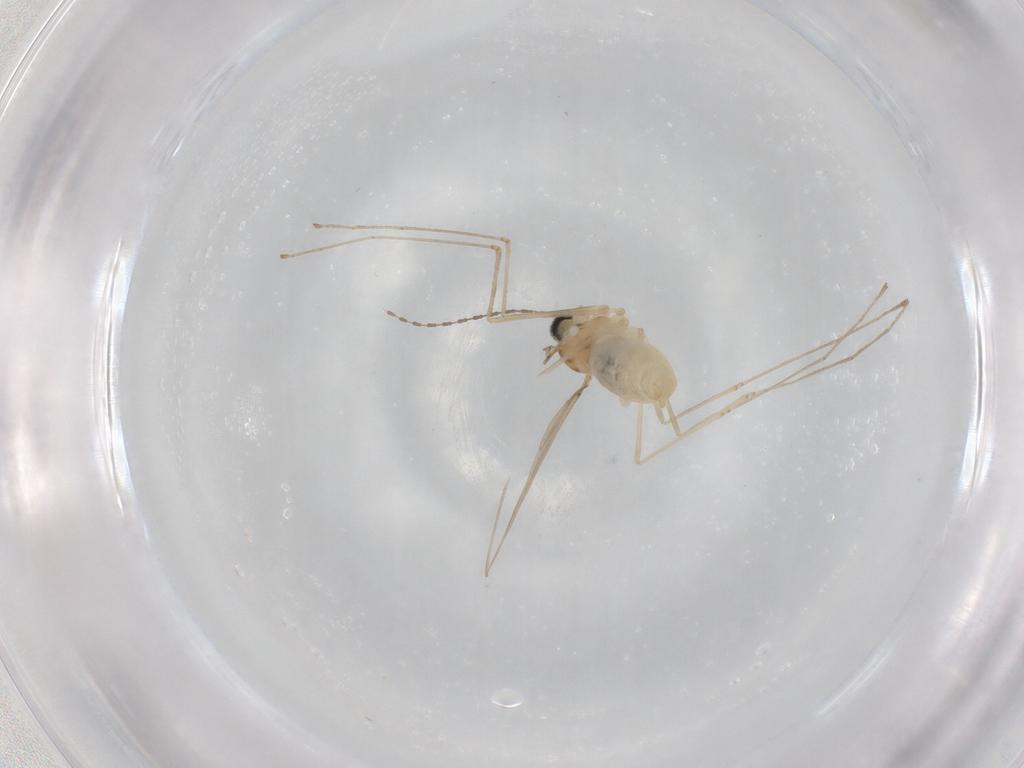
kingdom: Animalia
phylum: Arthropoda
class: Insecta
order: Diptera
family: Cecidomyiidae
